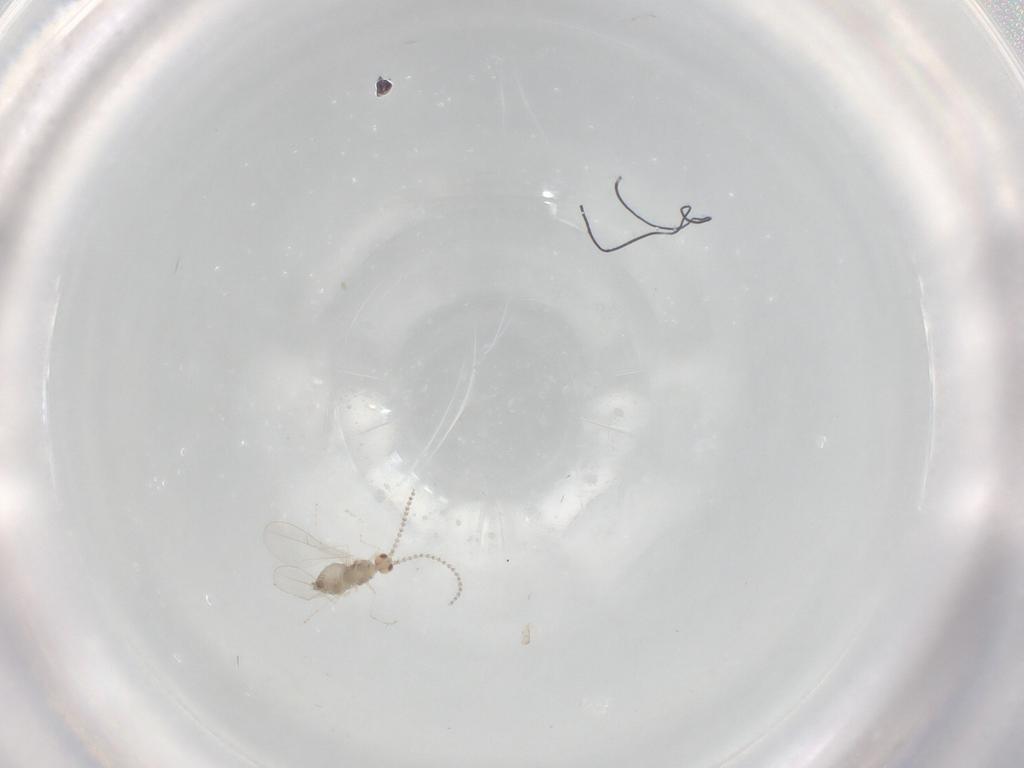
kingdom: Animalia
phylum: Arthropoda
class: Insecta
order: Diptera
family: Cecidomyiidae
